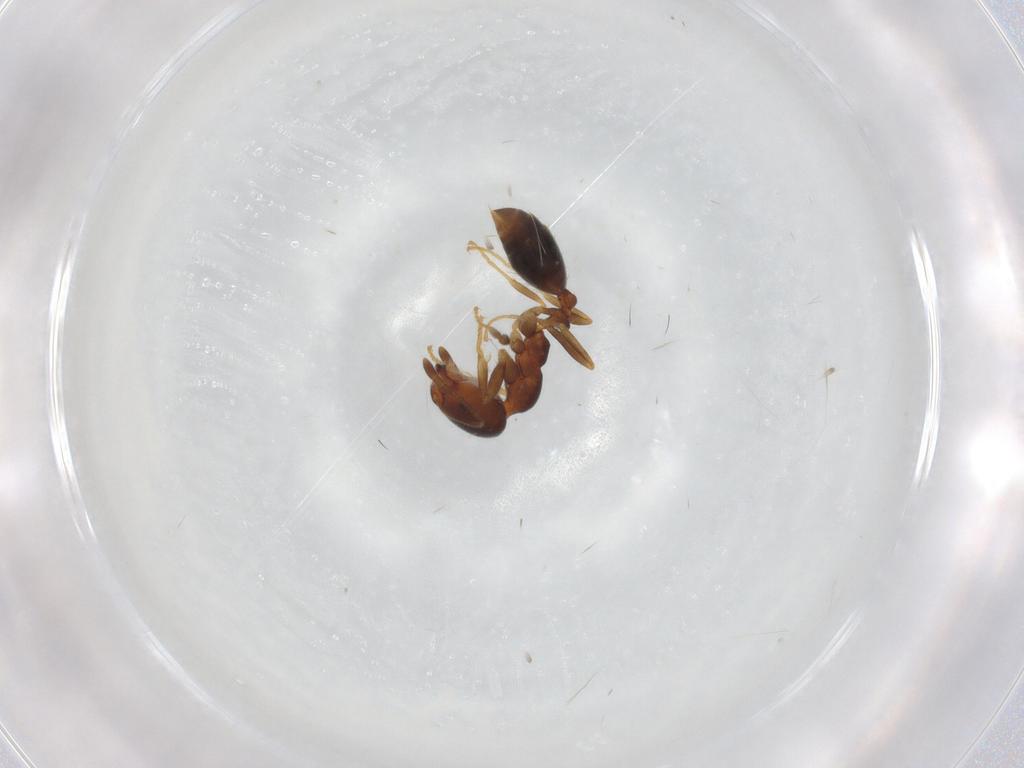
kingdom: Animalia
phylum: Arthropoda
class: Insecta
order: Hymenoptera
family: Formicidae
